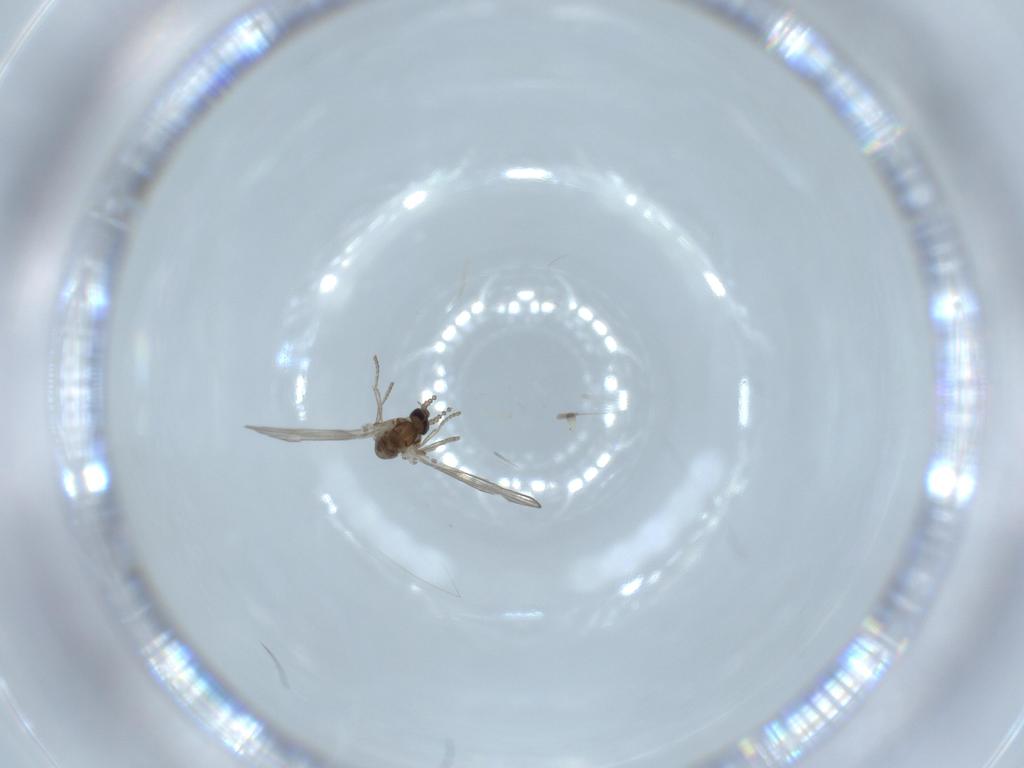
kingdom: Animalia
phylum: Arthropoda
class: Insecta
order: Diptera
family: Psychodidae
